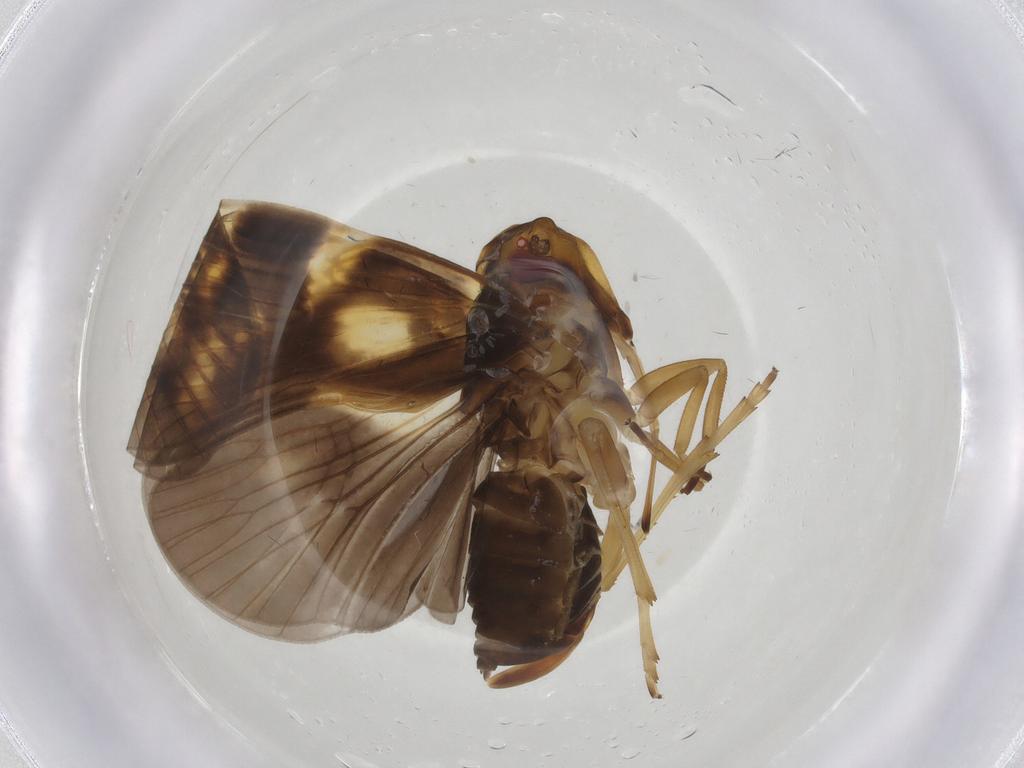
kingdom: Animalia
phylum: Arthropoda
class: Insecta
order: Hemiptera
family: Cixiidae
